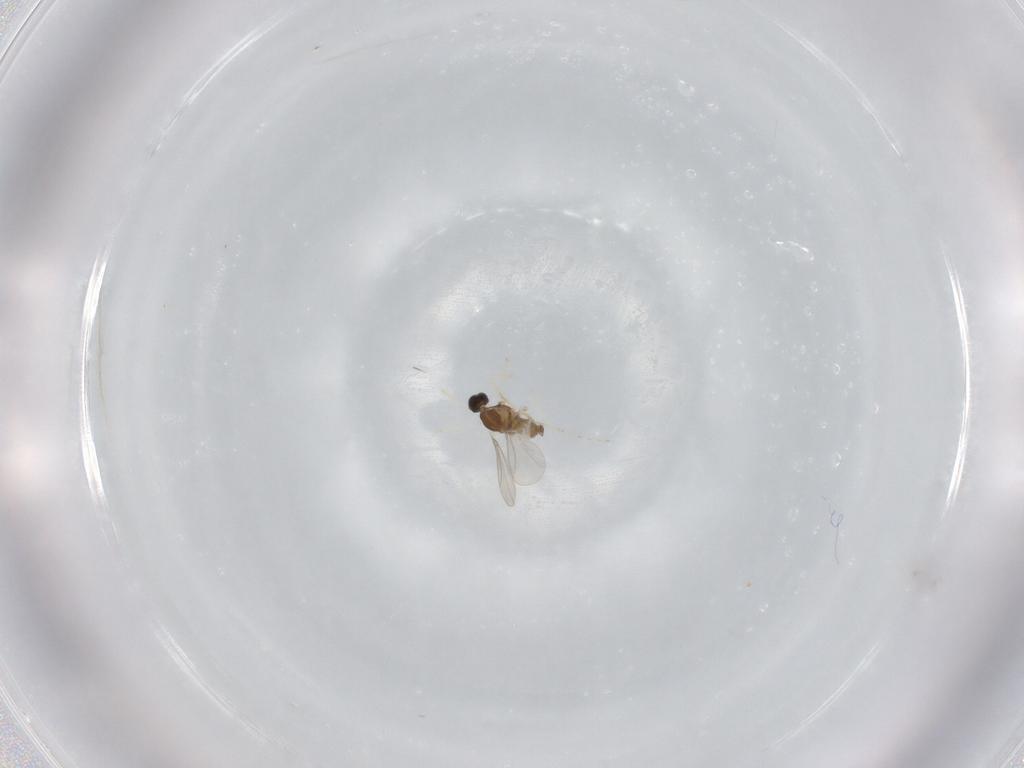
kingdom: Animalia
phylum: Arthropoda
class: Insecta
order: Diptera
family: Cecidomyiidae
